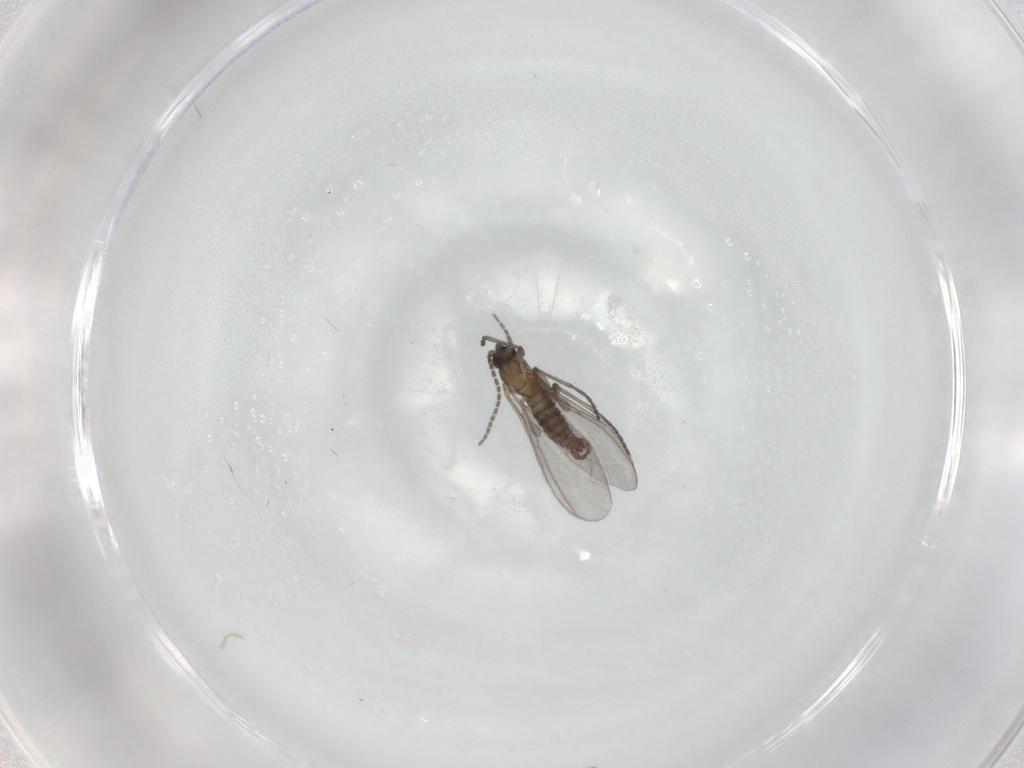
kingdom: Animalia
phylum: Arthropoda
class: Insecta
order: Diptera
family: Sciaridae
